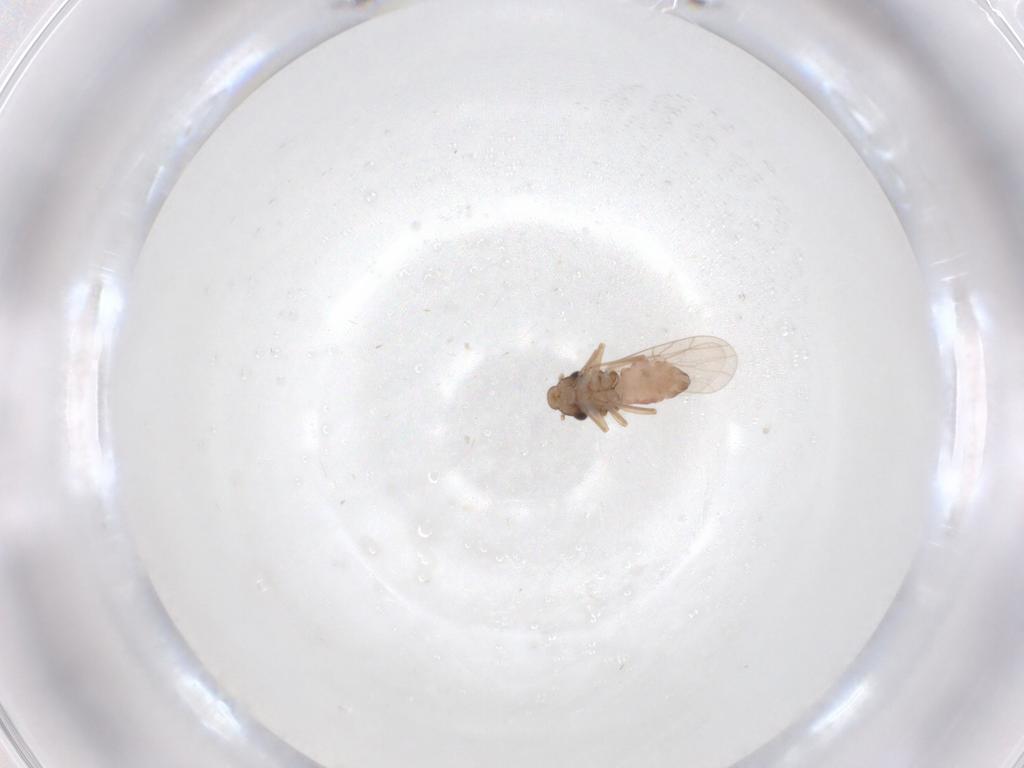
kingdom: Animalia
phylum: Arthropoda
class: Insecta
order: Psocodea
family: Lepidopsocidae
